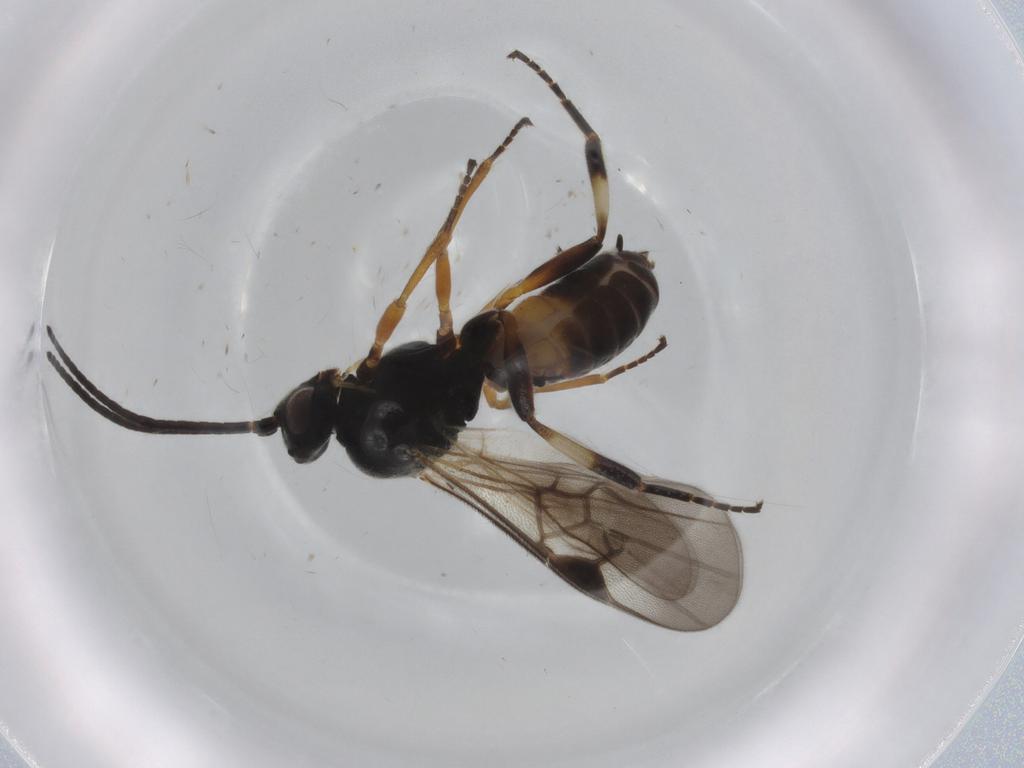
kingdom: Animalia
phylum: Arthropoda
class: Insecta
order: Hymenoptera
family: Braconidae
